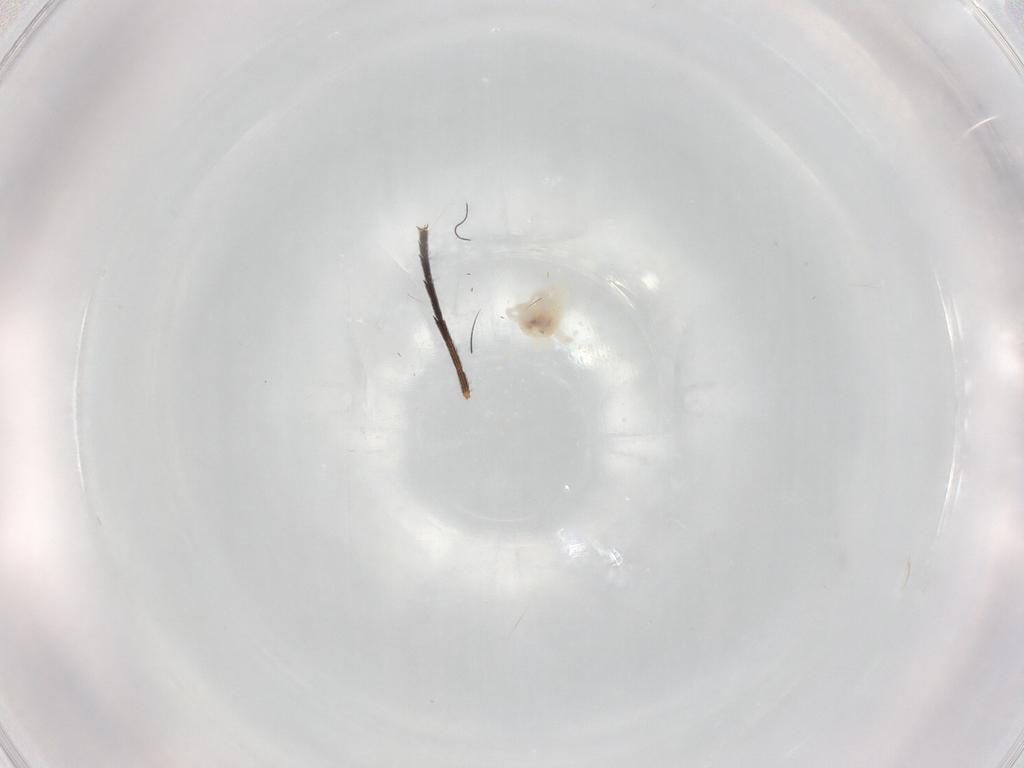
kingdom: Animalia
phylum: Arthropoda
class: Arachnida
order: Trombidiformes
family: Anystidae
